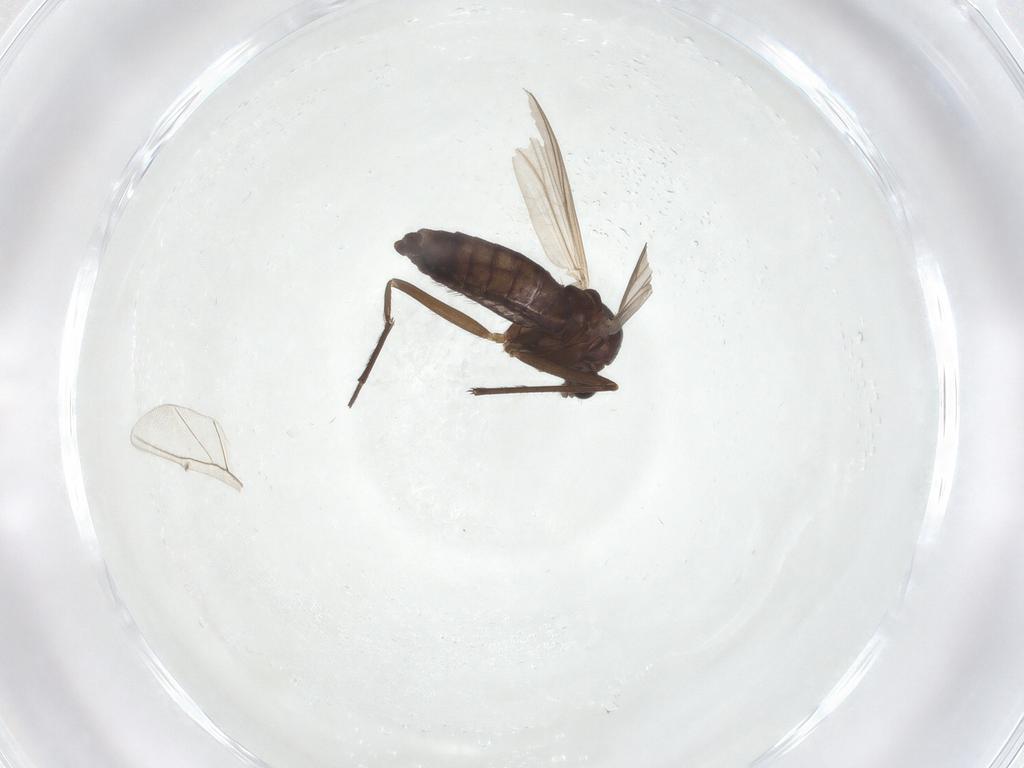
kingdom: Animalia
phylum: Arthropoda
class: Insecta
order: Diptera
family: Chironomidae
